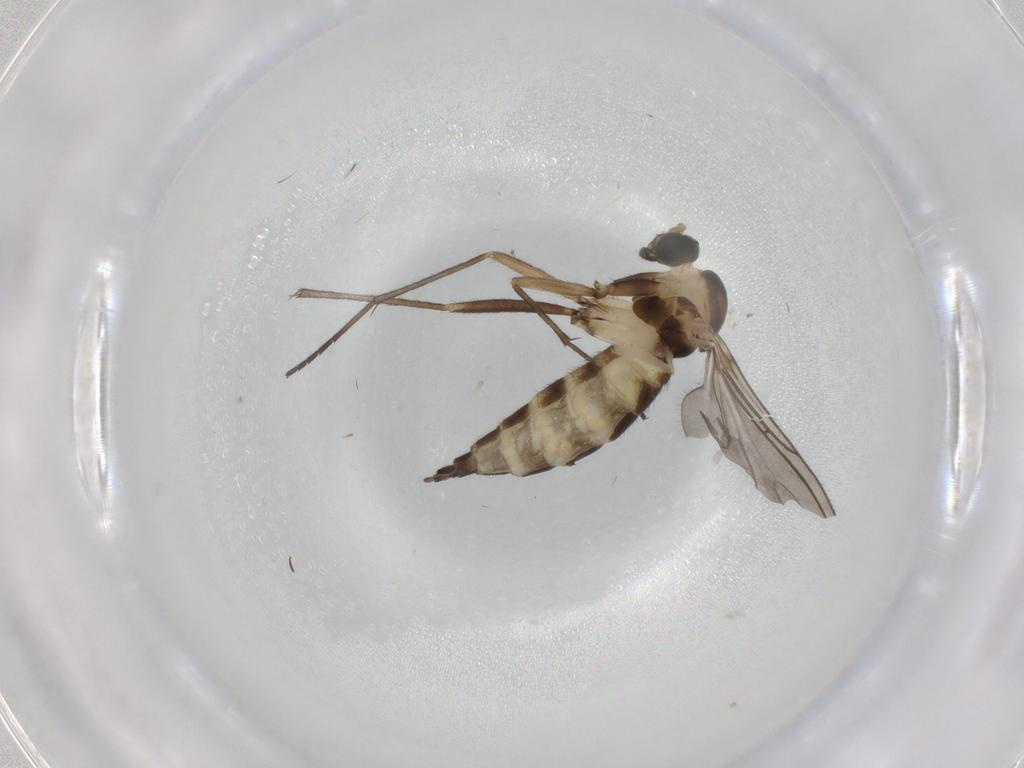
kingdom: Animalia
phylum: Arthropoda
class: Insecta
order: Diptera
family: Sciaridae
